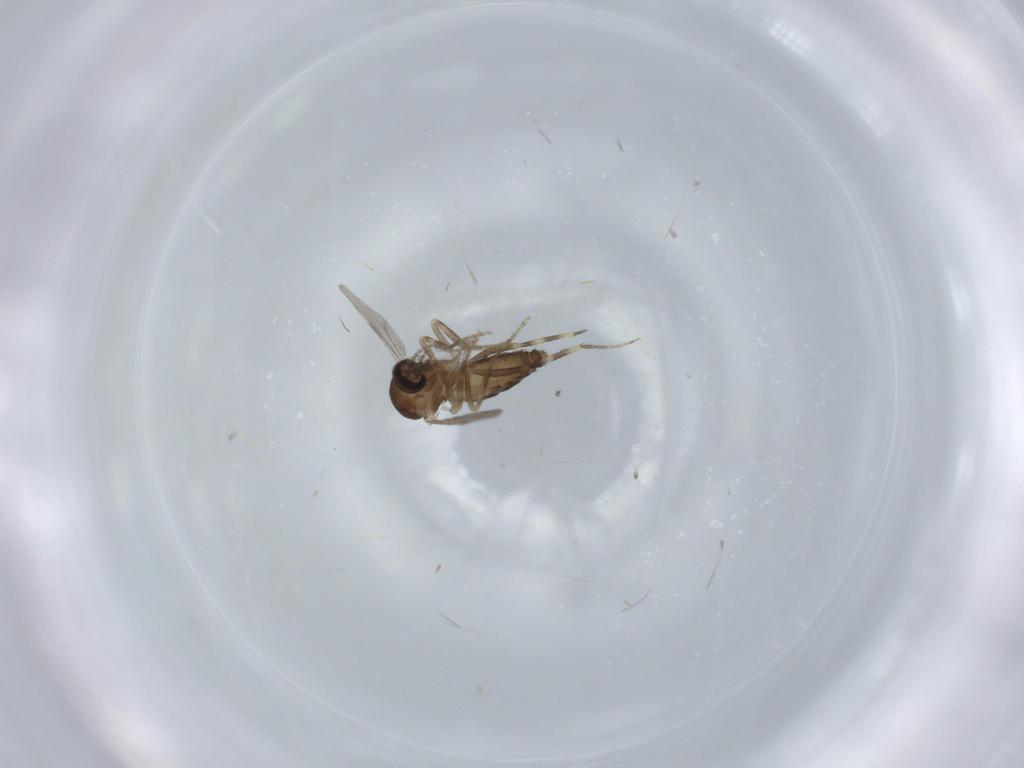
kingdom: Animalia
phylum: Arthropoda
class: Insecta
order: Diptera
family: Ceratopogonidae
